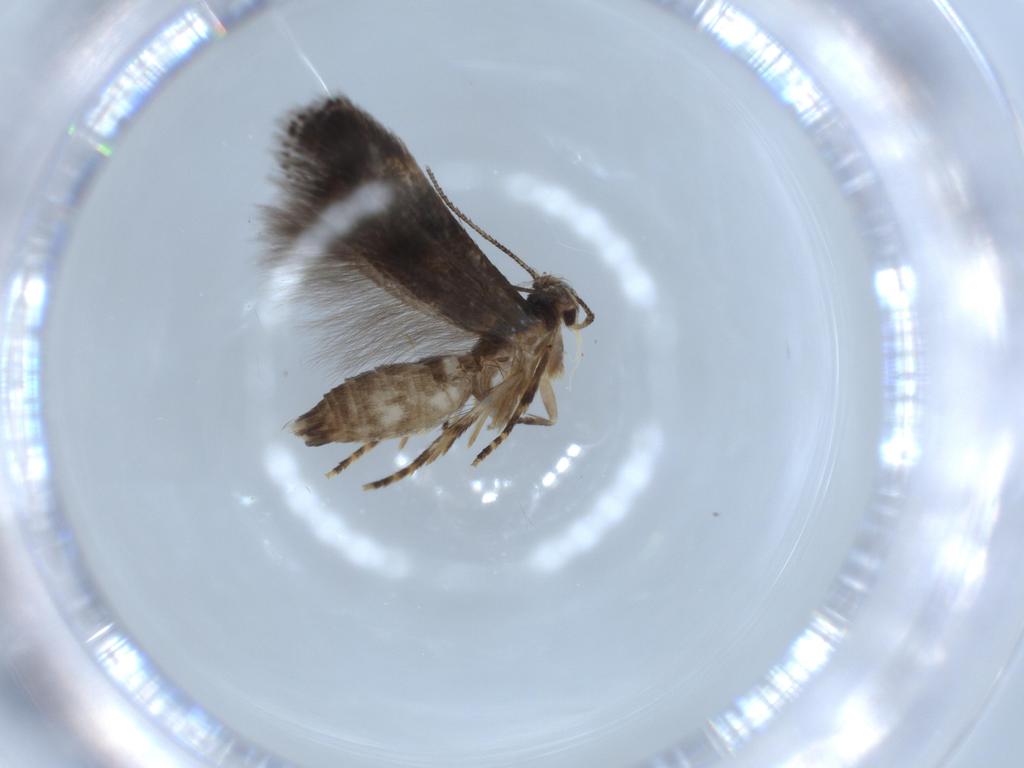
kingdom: Animalia
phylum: Arthropoda
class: Insecta
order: Lepidoptera
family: Gelechiidae
